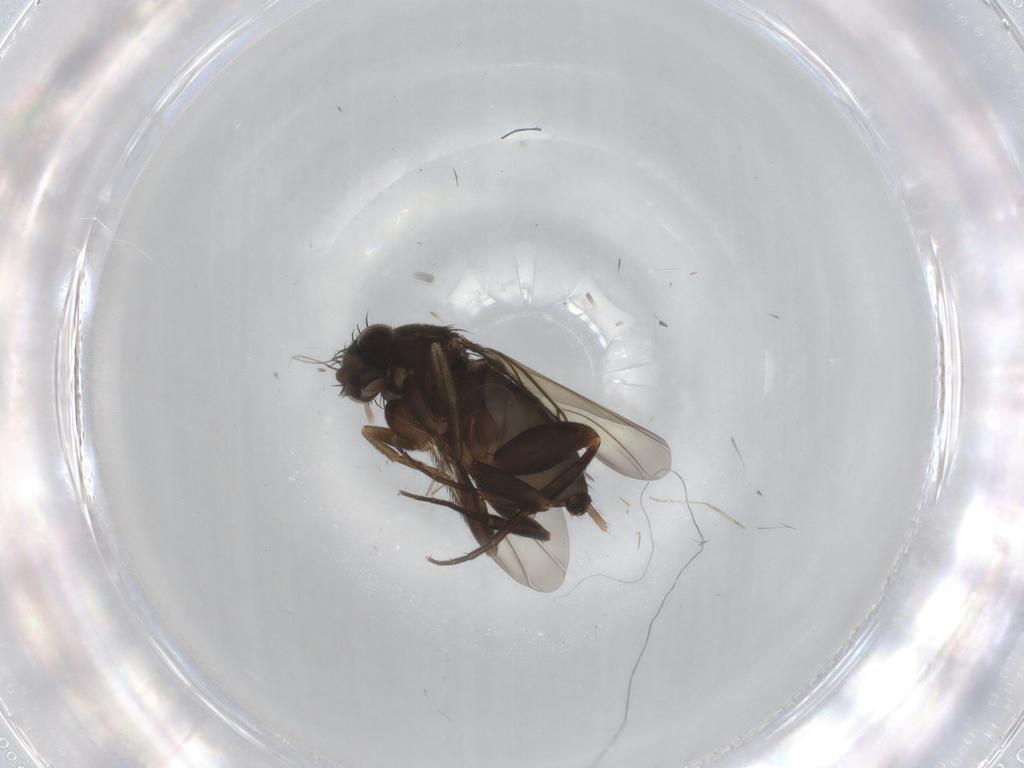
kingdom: Animalia
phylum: Arthropoda
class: Insecta
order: Diptera
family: Phoridae
